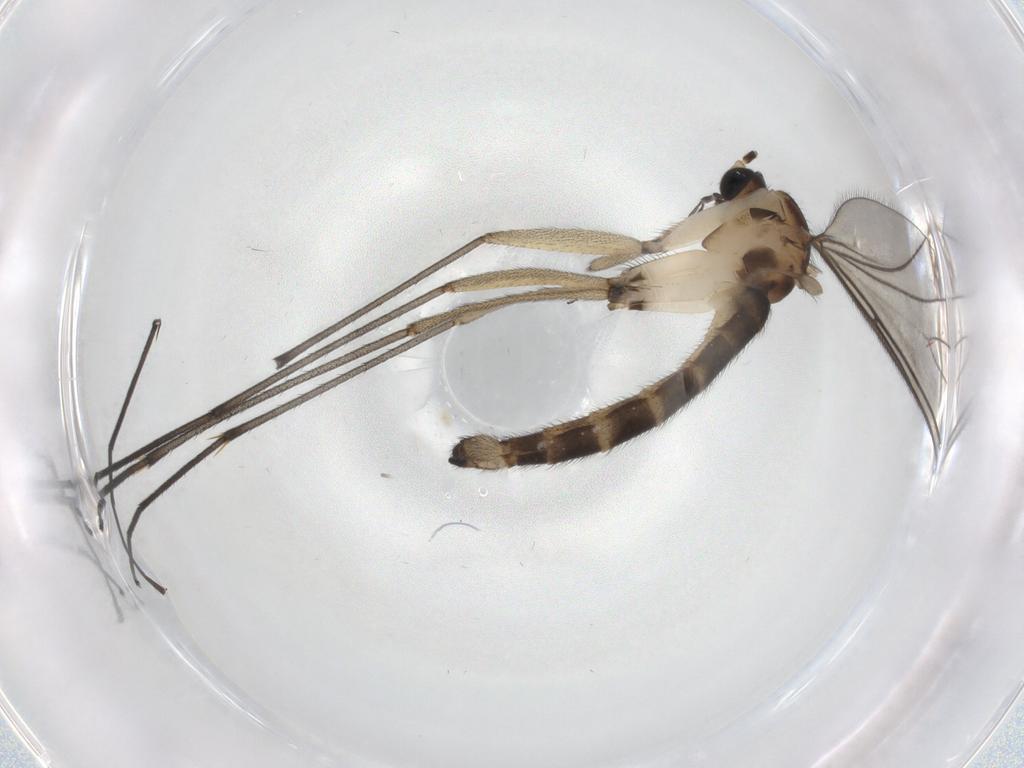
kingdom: Animalia
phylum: Arthropoda
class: Insecta
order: Diptera
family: Sciaridae
